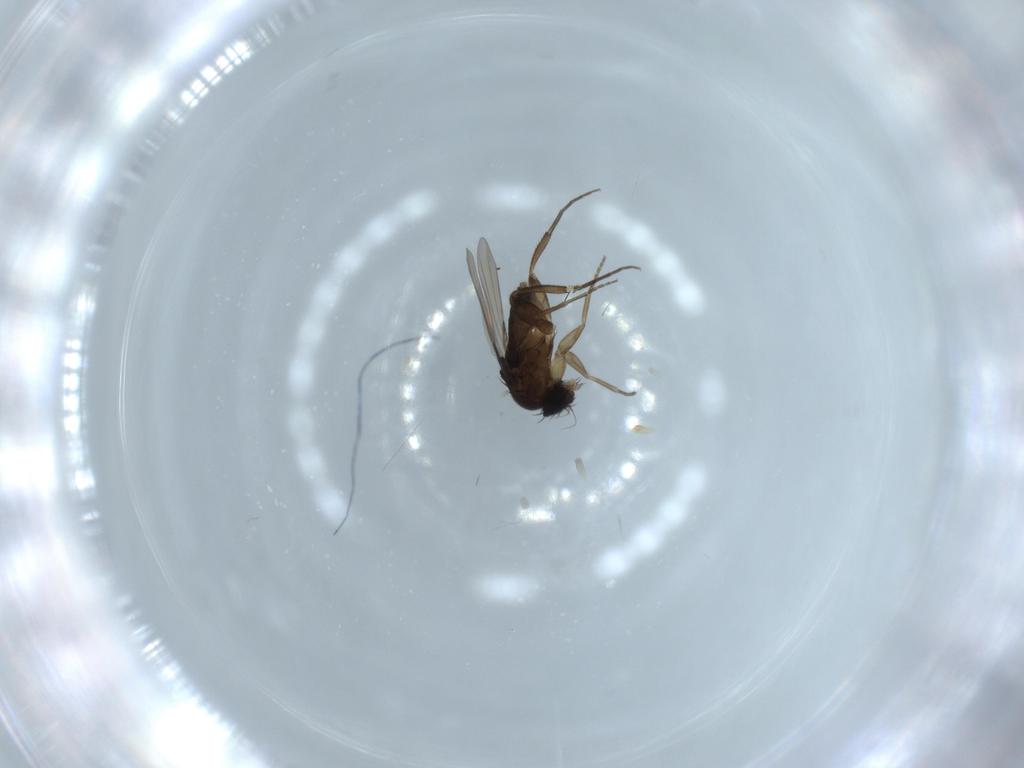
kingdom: Animalia
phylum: Arthropoda
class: Insecta
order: Diptera
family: Phoridae
